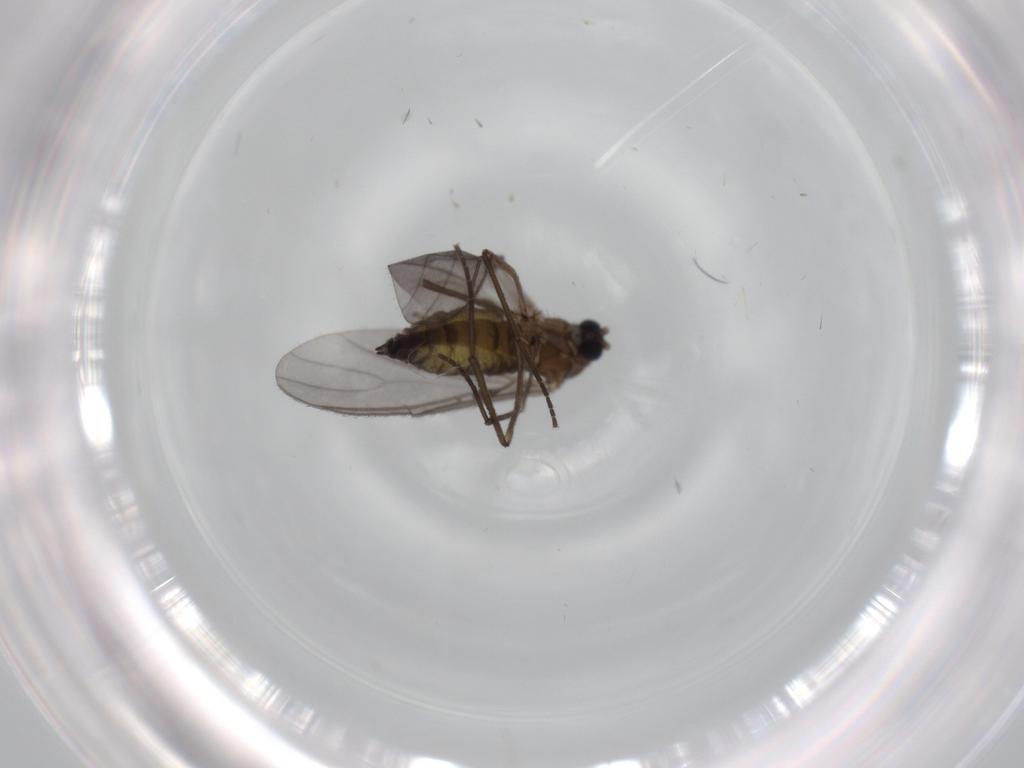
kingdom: Animalia
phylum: Arthropoda
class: Insecta
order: Diptera
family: Sciaridae
